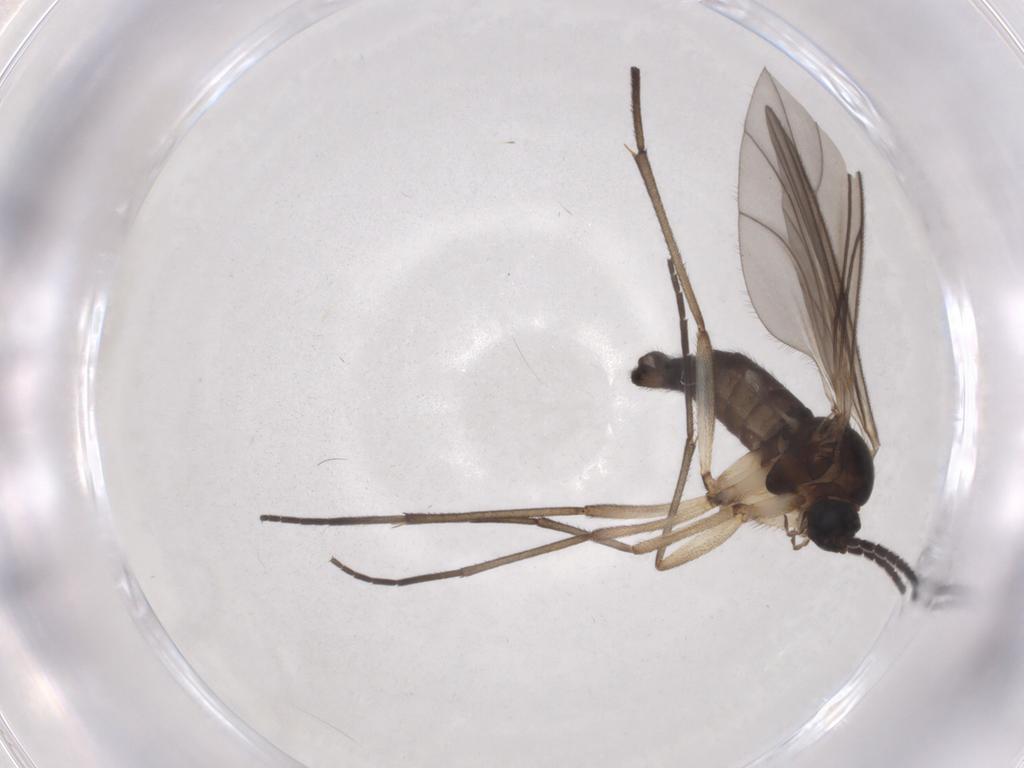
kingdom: Animalia
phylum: Arthropoda
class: Insecta
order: Diptera
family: Sciaridae
